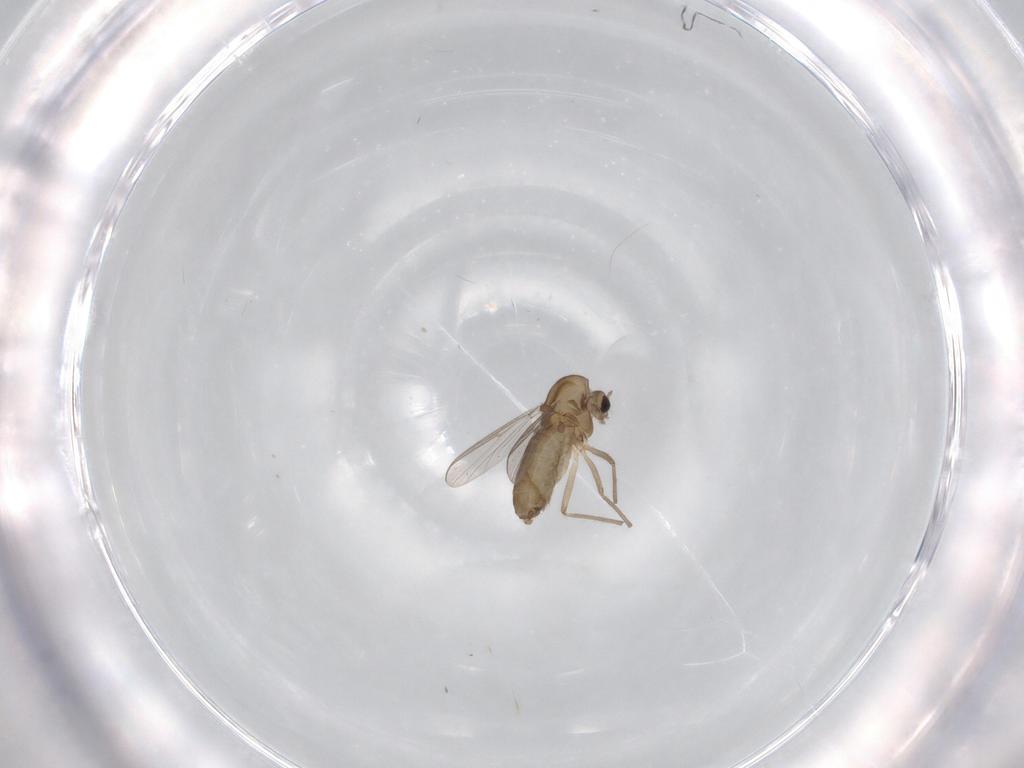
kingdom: Animalia
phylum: Arthropoda
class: Insecta
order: Diptera
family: Chironomidae
